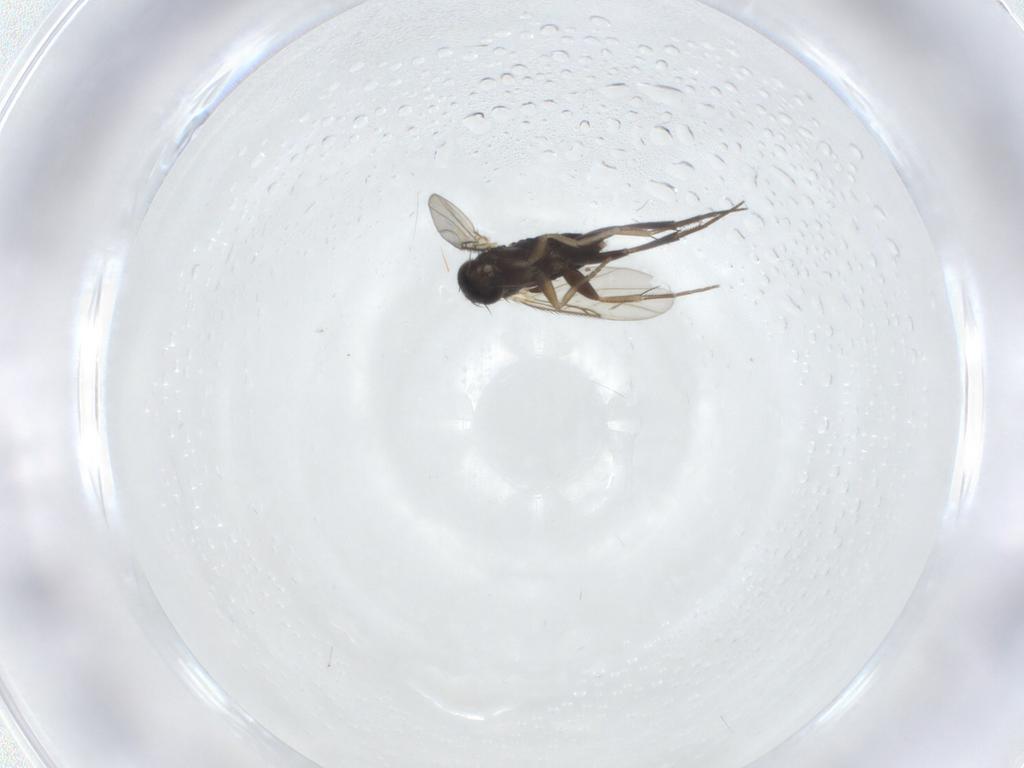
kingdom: Animalia
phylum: Arthropoda
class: Insecta
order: Diptera
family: Phoridae
